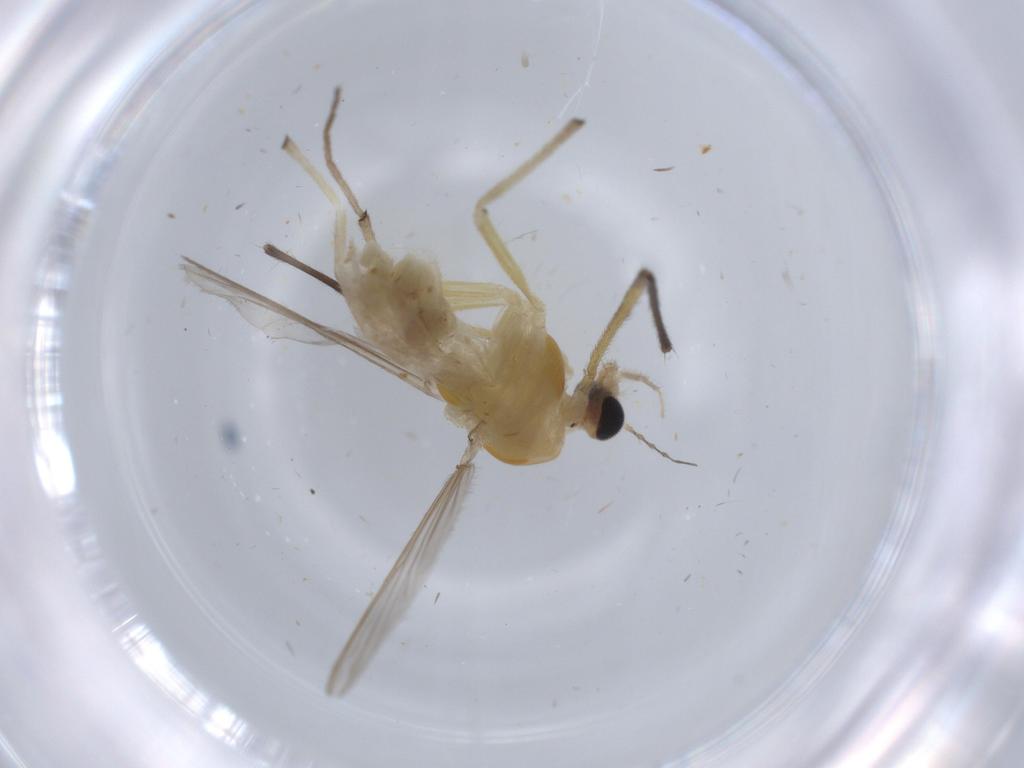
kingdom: Animalia
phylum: Arthropoda
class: Insecta
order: Diptera
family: Chironomidae
